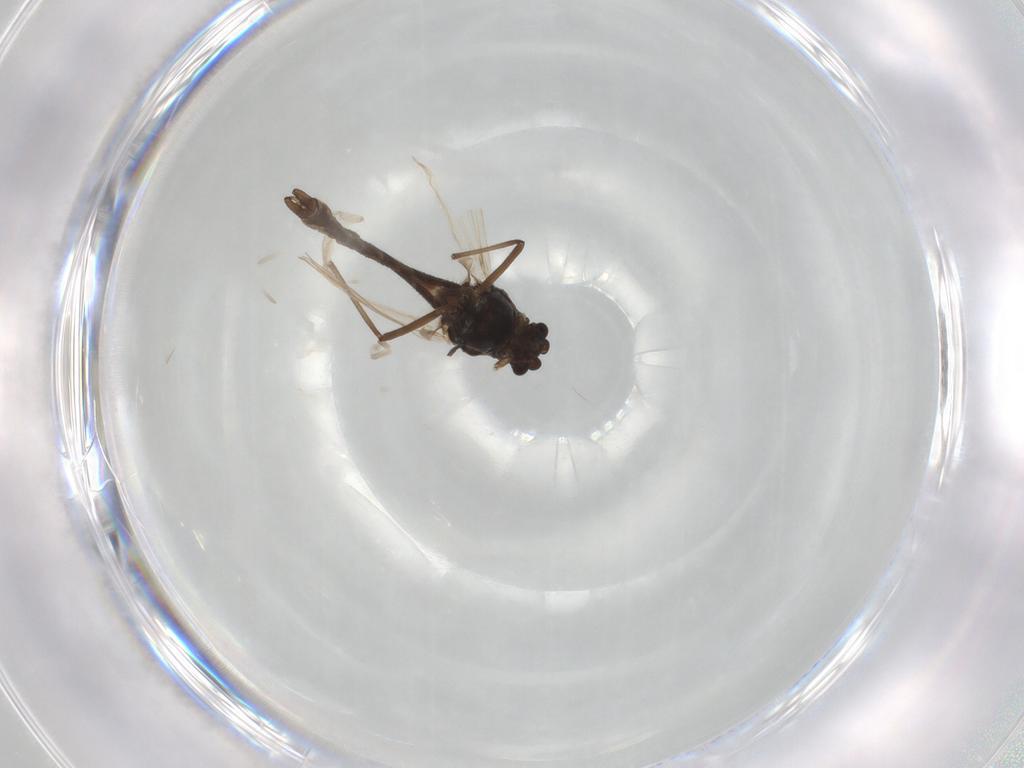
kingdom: Animalia
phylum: Arthropoda
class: Insecta
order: Diptera
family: Chironomidae
